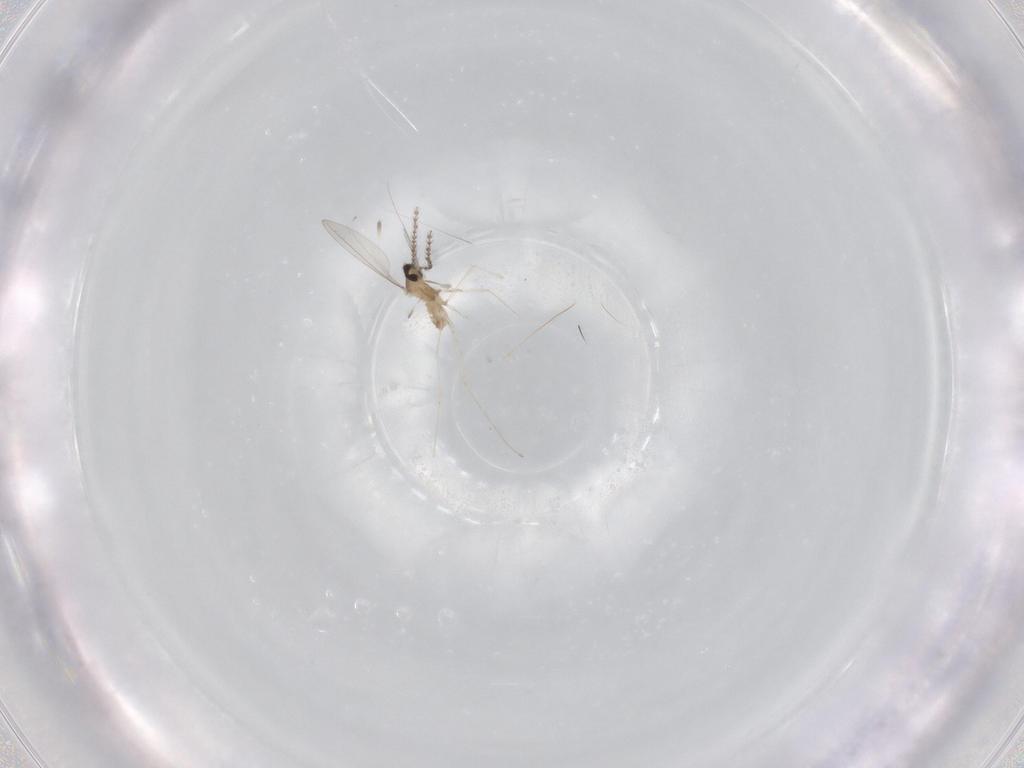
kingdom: Animalia
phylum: Arthropoda
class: Insecta
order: Diptera
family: Cecidomyiidae
